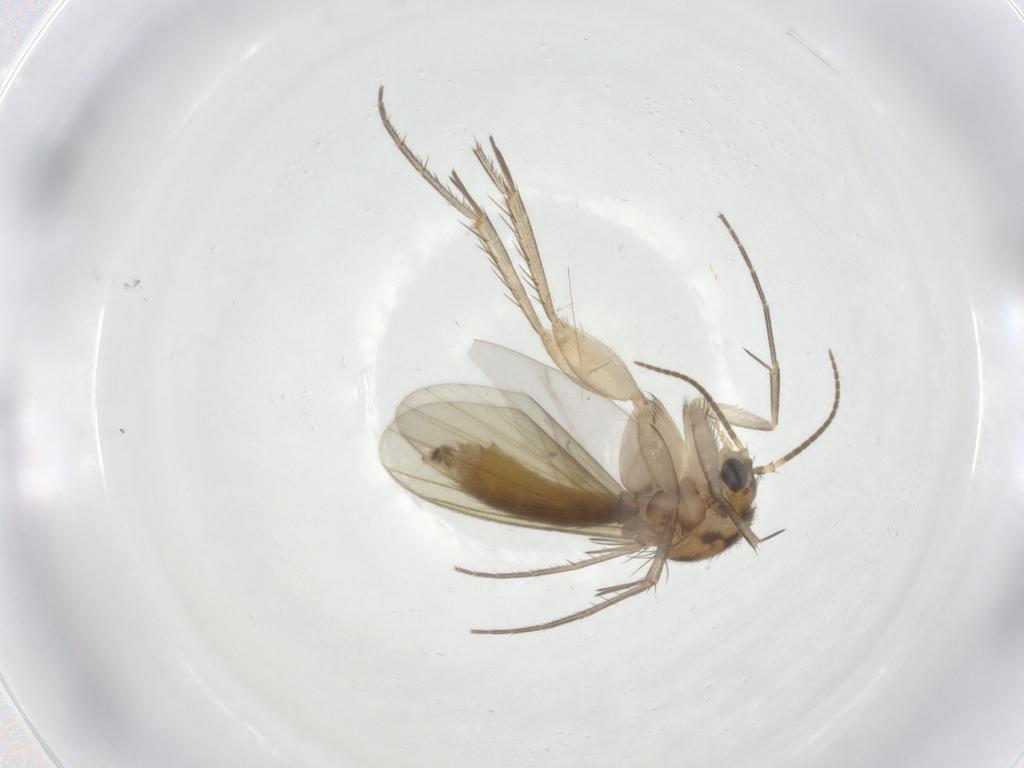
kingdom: Animalia
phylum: Arthropoda
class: Insecta
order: Diptera
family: Mycetophilidae
